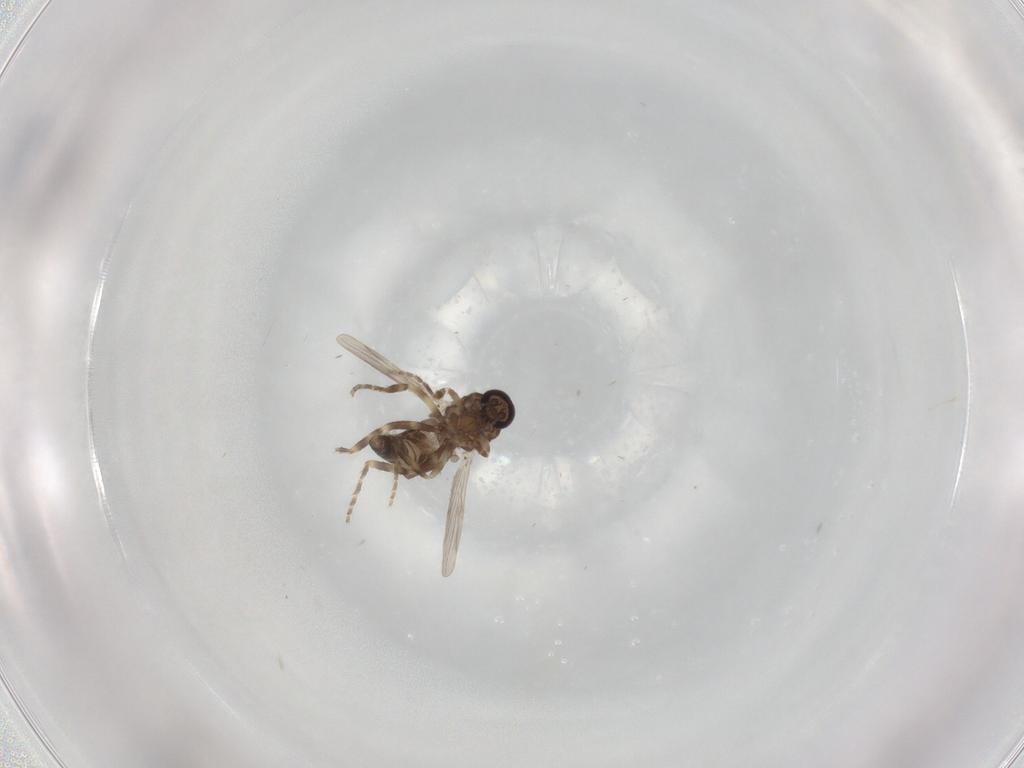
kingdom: Animalia
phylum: Arthropoda
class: Insecta
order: Diptera
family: Ceratopogonidae
